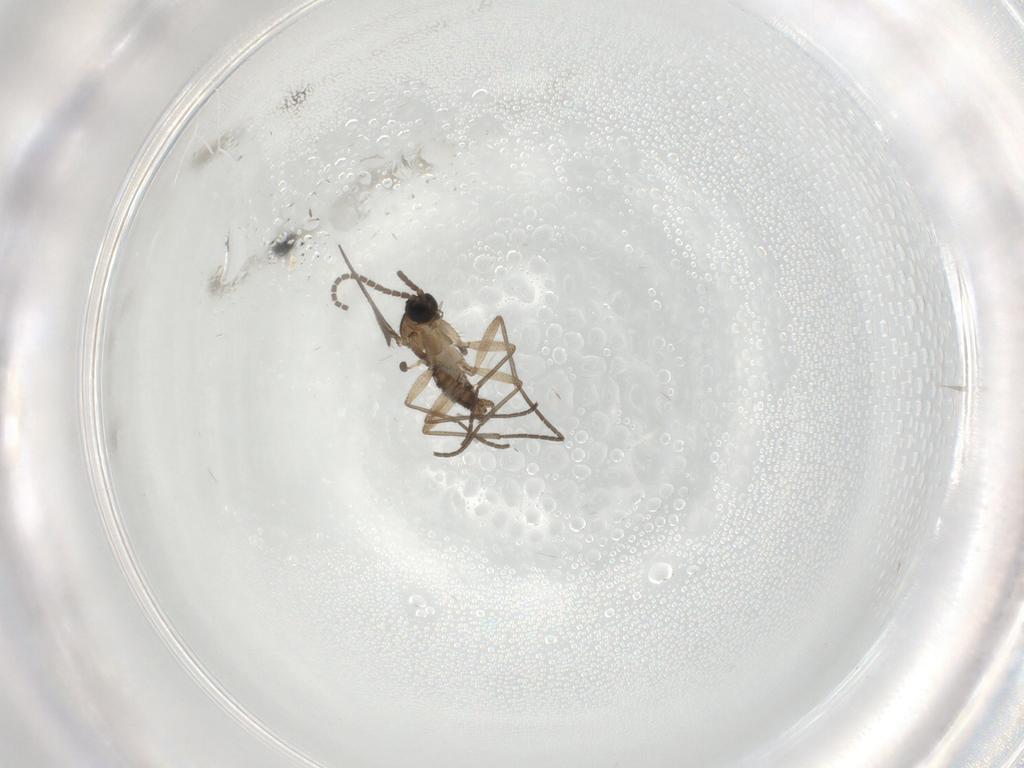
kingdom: Animalia
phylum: Arthropoda
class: Insecta
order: Diptera
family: Sciaridae
